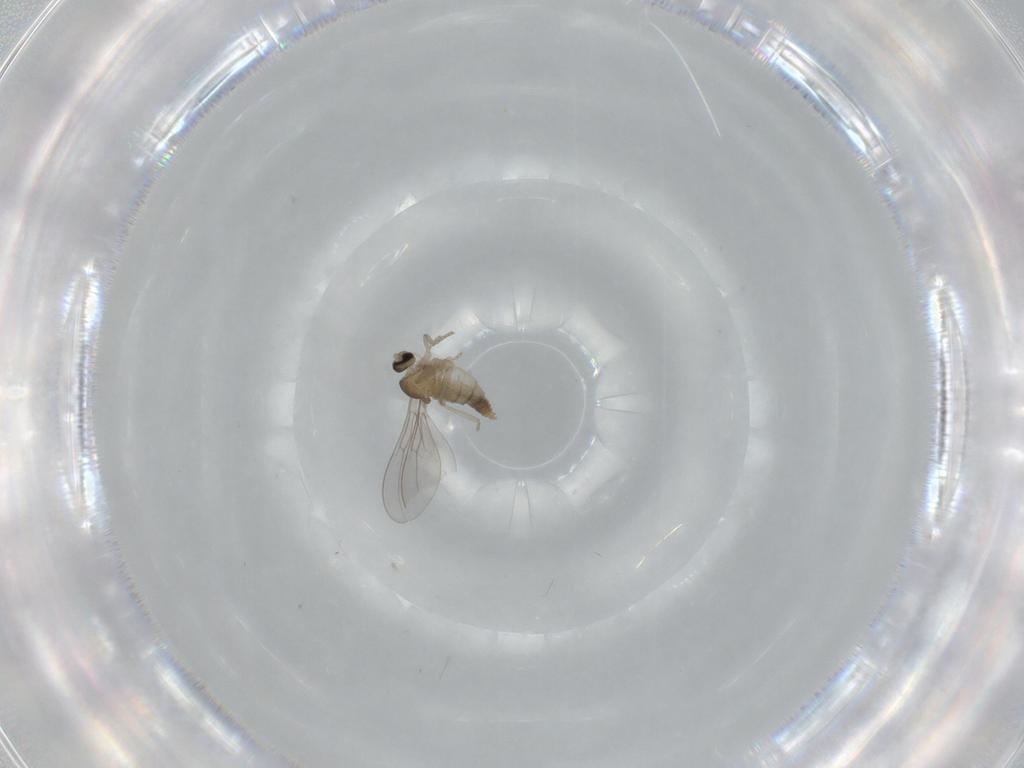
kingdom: Animalia
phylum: Arthropoda
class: Insecta
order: Diptera
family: Cecidomyiidae
